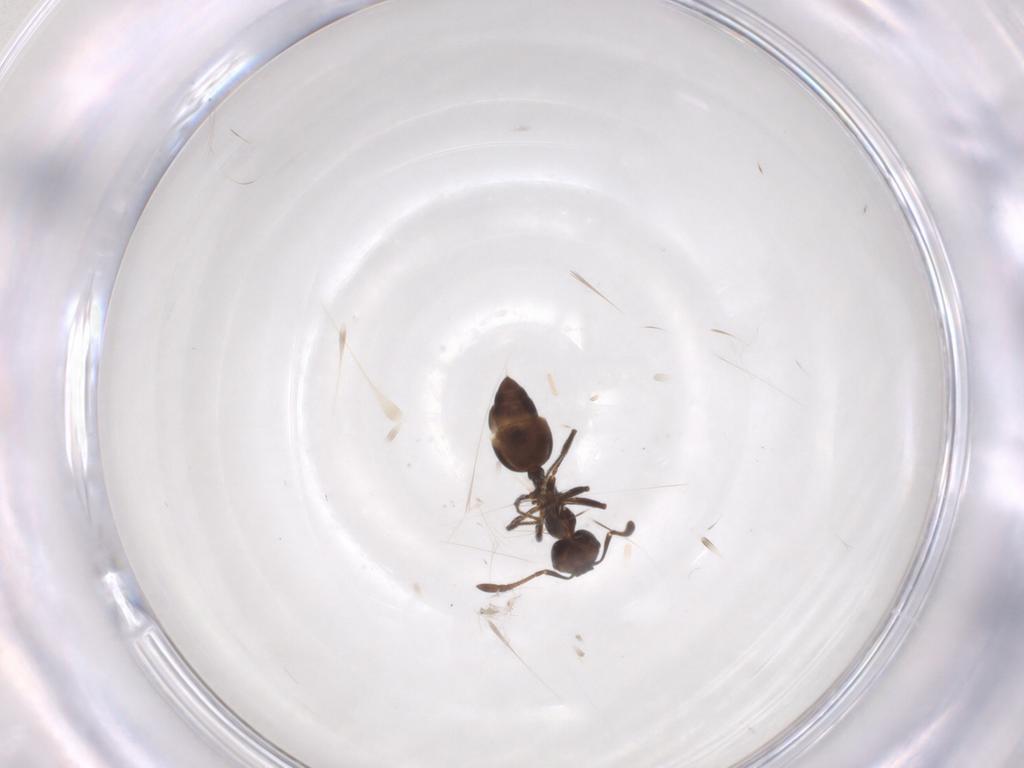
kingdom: Animalia
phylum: Arthropoda
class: Insecta
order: Hymenoptera
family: Formicidae
